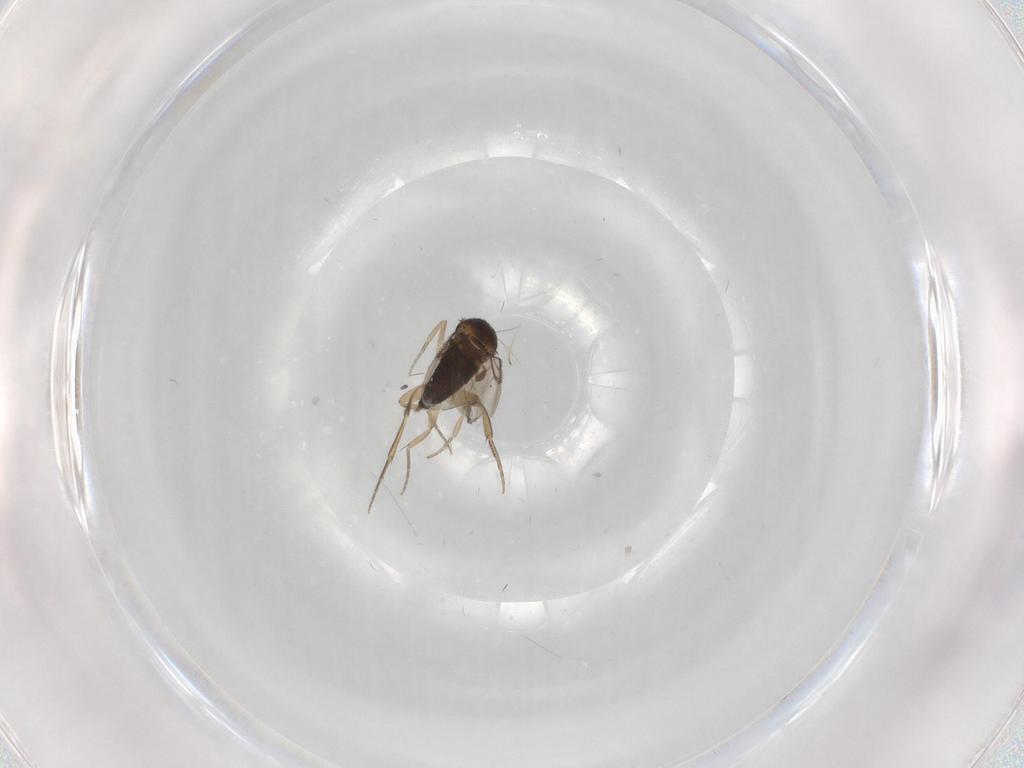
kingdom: Animalia
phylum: Arthropoda
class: Insecta
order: Diptera
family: Phoridae
